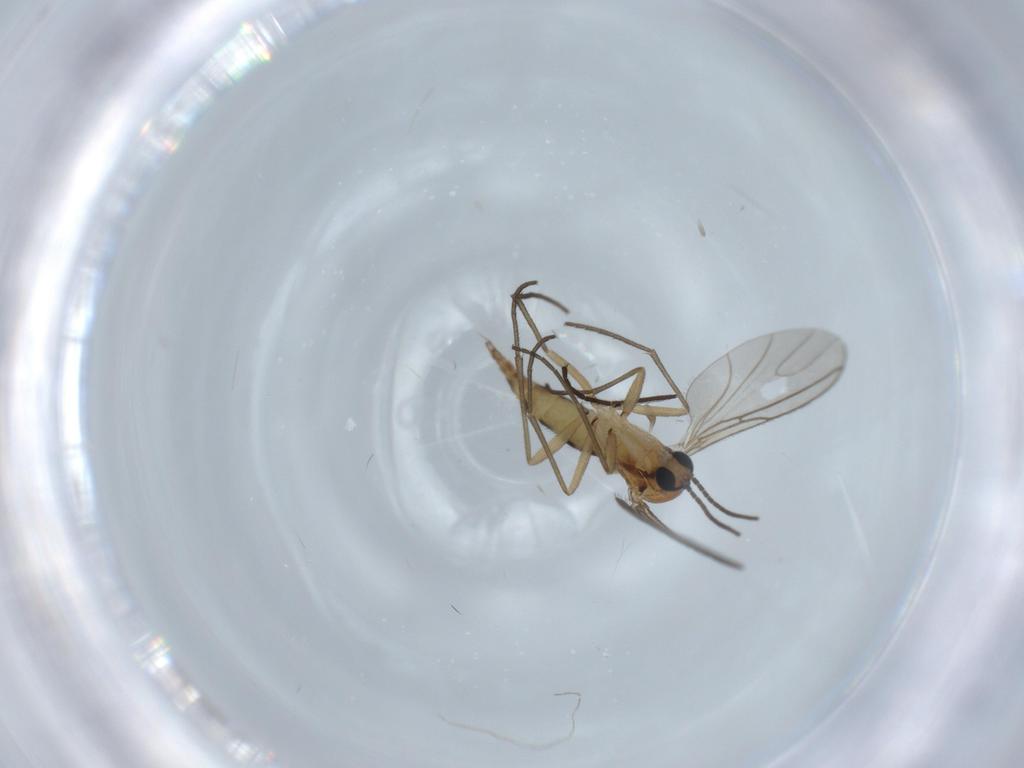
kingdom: Animalia
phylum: Arthropoda
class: Insecta
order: Diptera
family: Cecidomyiidae
